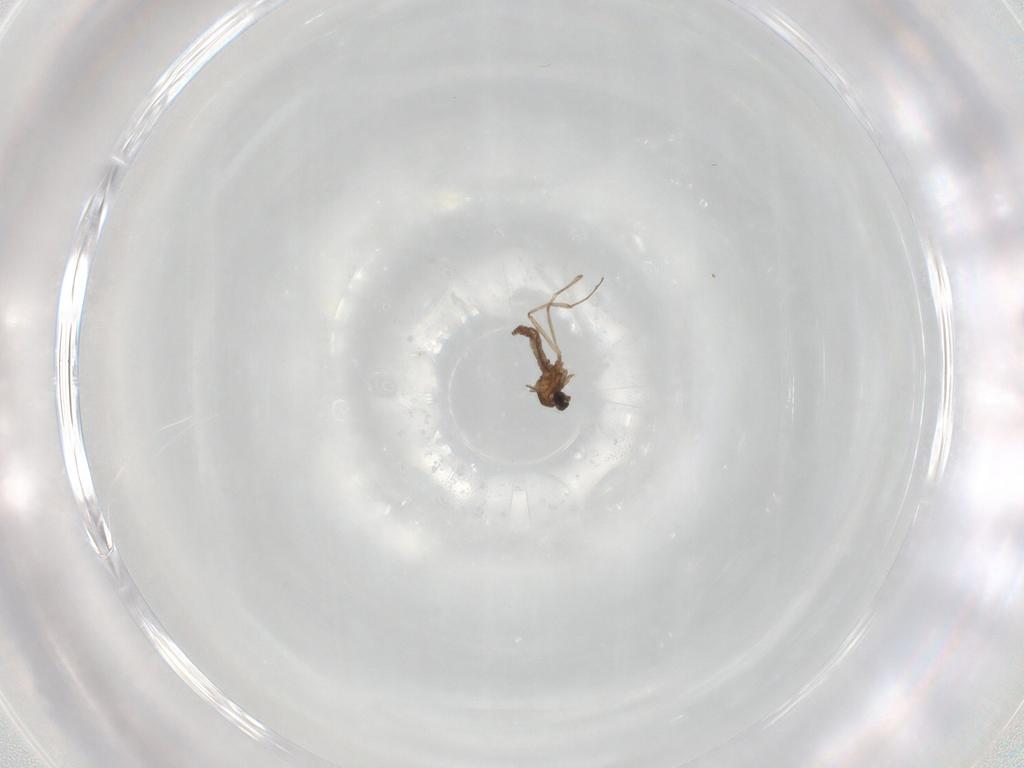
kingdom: Animalia
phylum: Arthropoda
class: Insecta
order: Diptera
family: Cecidomyiidae
